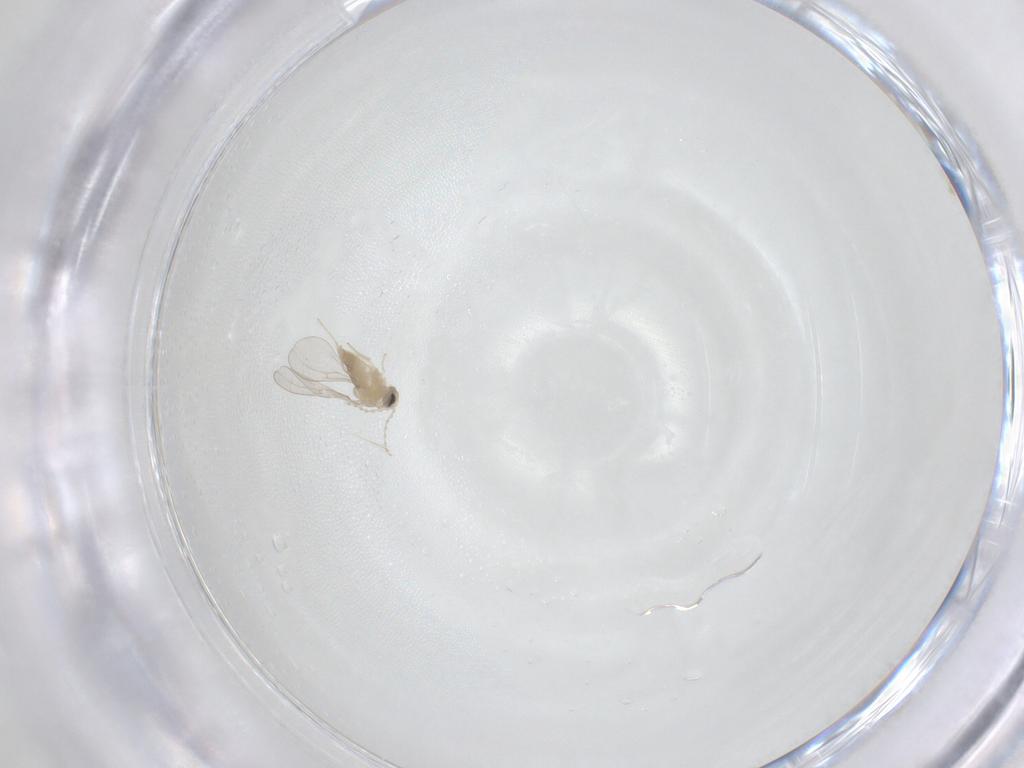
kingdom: Animalia
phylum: Arthropoda
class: Insecta
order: Diptera
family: Cecidomyiidae
